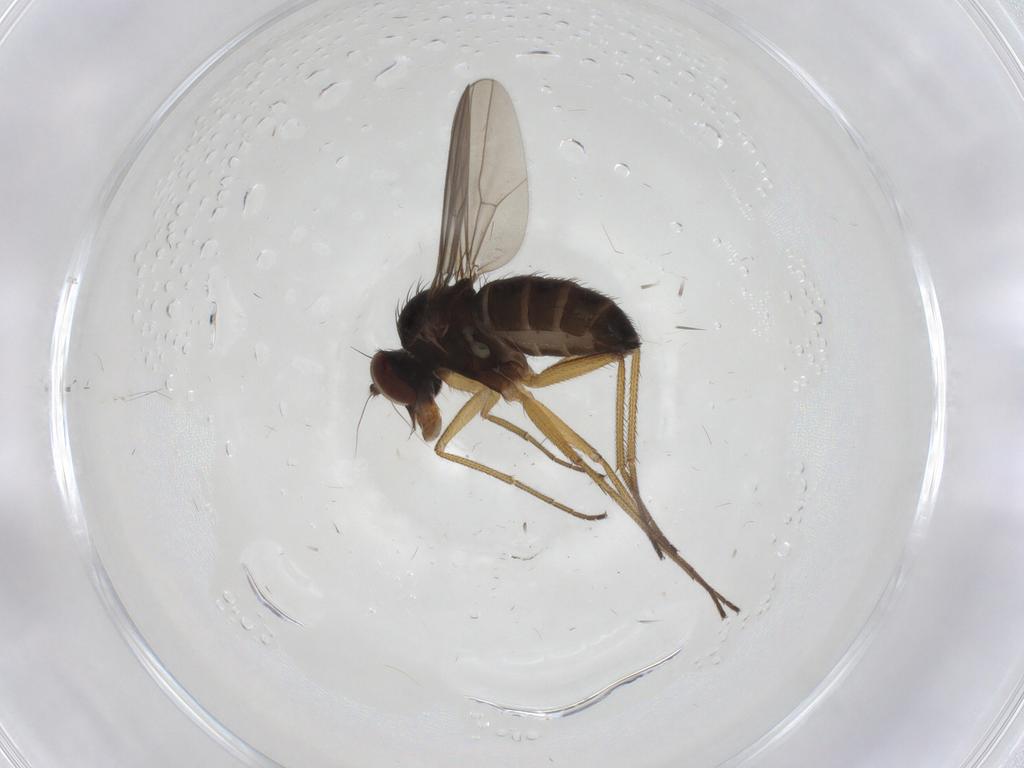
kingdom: Animalia
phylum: Arthropoda
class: Insecta
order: Diptera
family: Dolichopodidae
